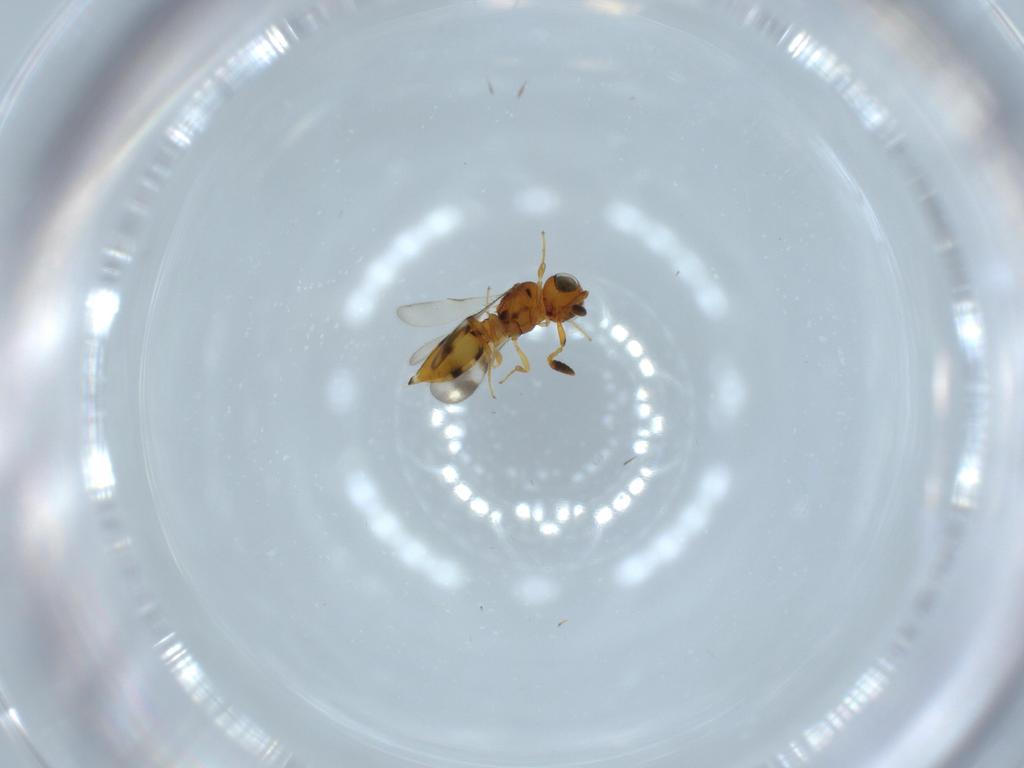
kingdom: Animalia
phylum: Arthropoda
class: Insecta
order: Hymenoptera
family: Scelionidae
